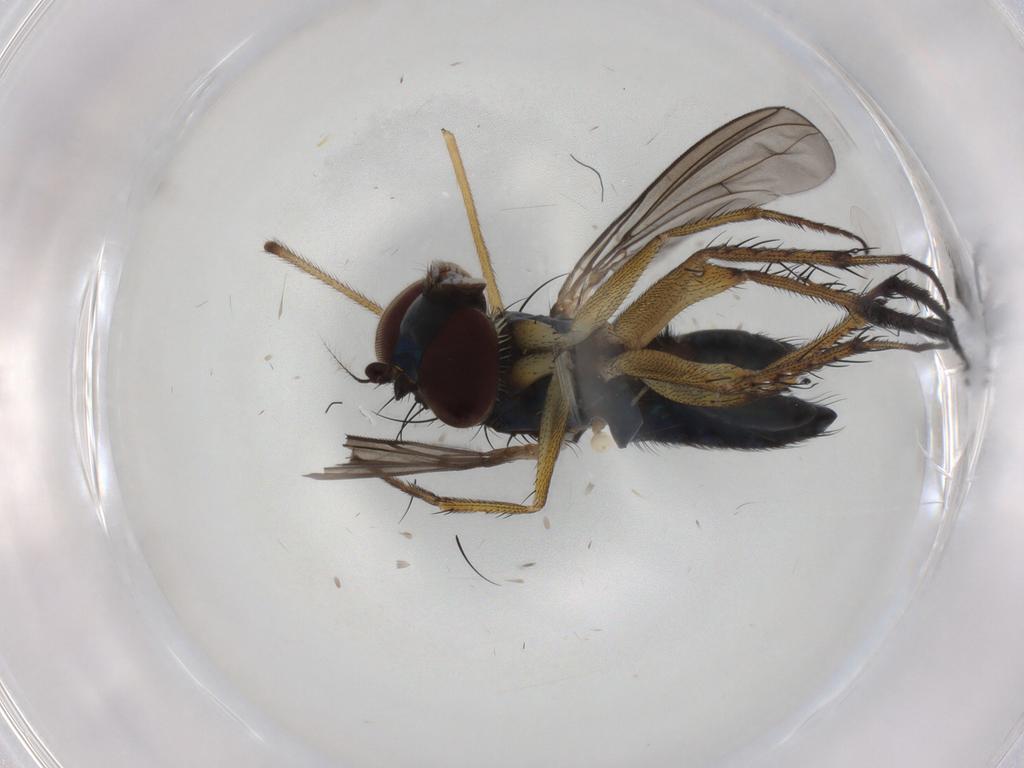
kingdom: Animalia
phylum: Arthropoda
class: Insecta
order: Diptera
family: Dolichopodidae
